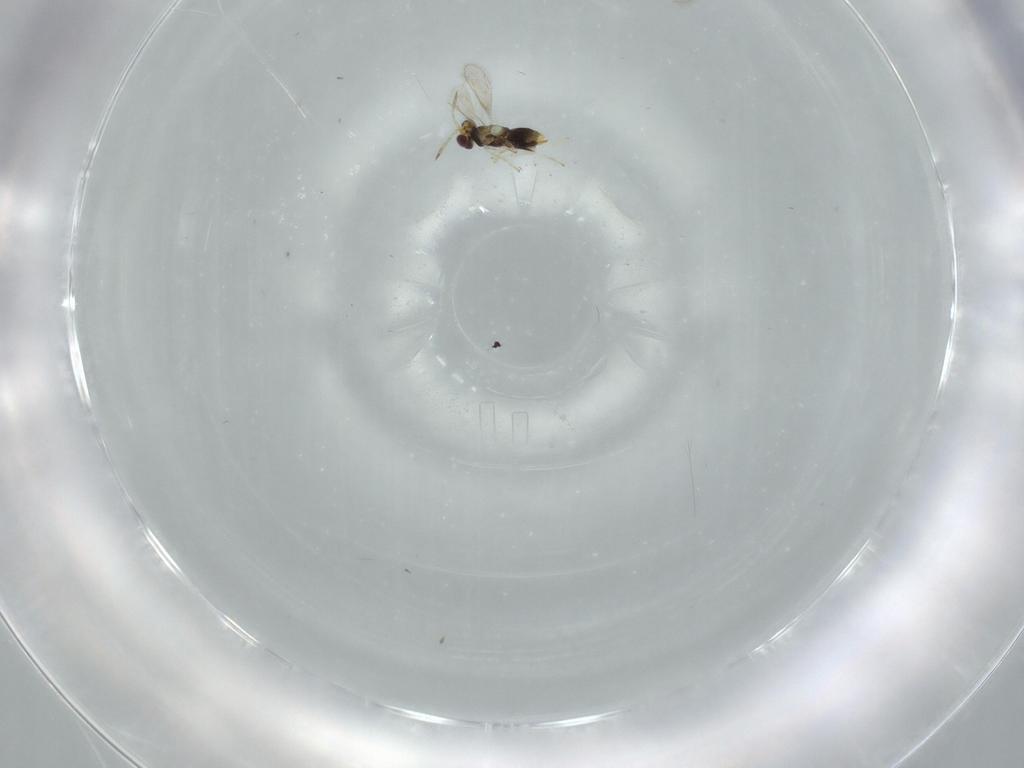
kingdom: Animalia
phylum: Arthropoda
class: Insecta
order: Hymenoptera
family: Aphelinidae
